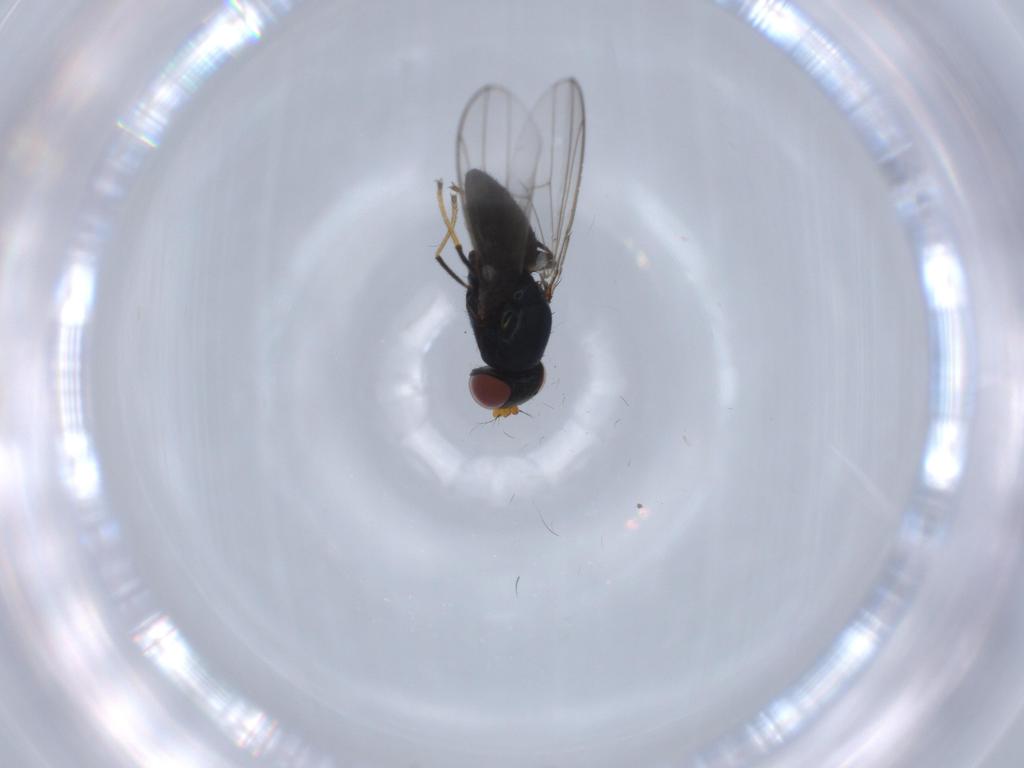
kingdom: Animalia
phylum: Arthropoda
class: Insecta
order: Diptera
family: Ephydridae
